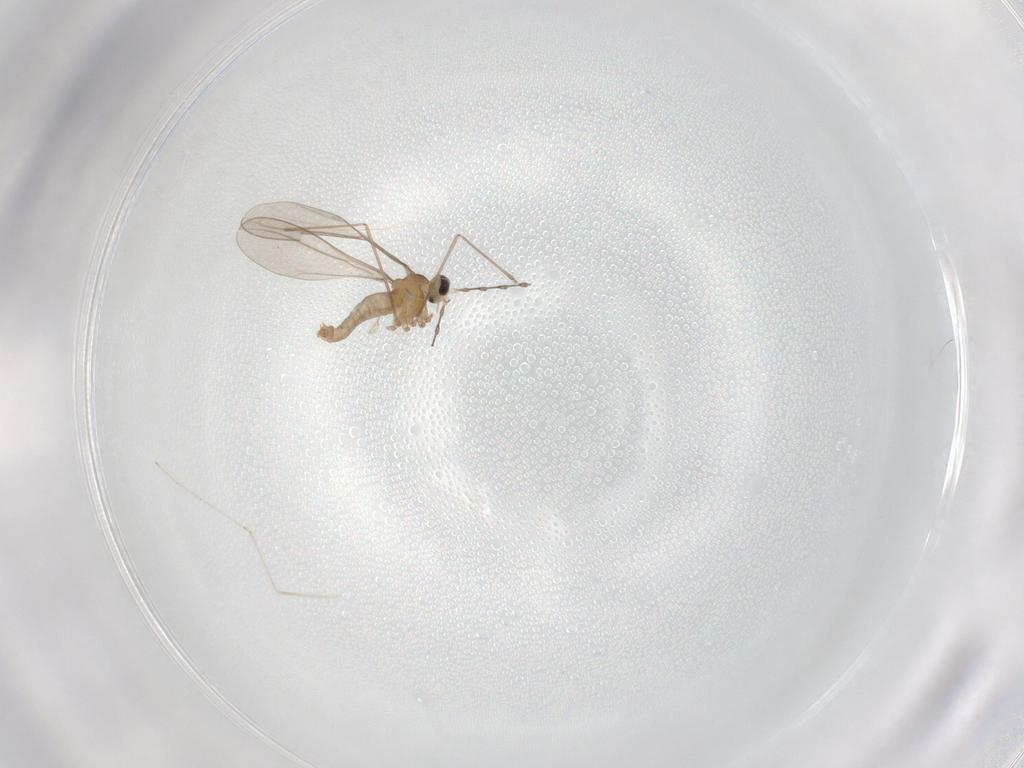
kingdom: Animalia
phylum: Arthropoda
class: Insecta
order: Diptera
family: Cecidomyiidae
